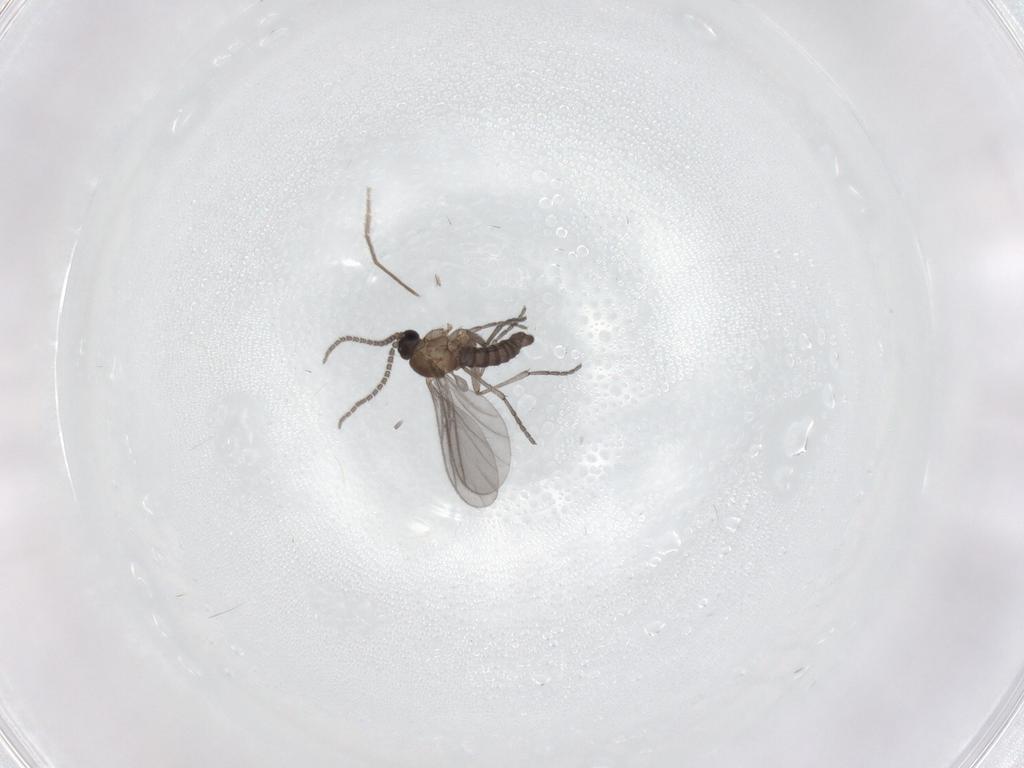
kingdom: Animalia
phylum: Arthropoda
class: Insecta
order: Diptera
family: Sciaridae
